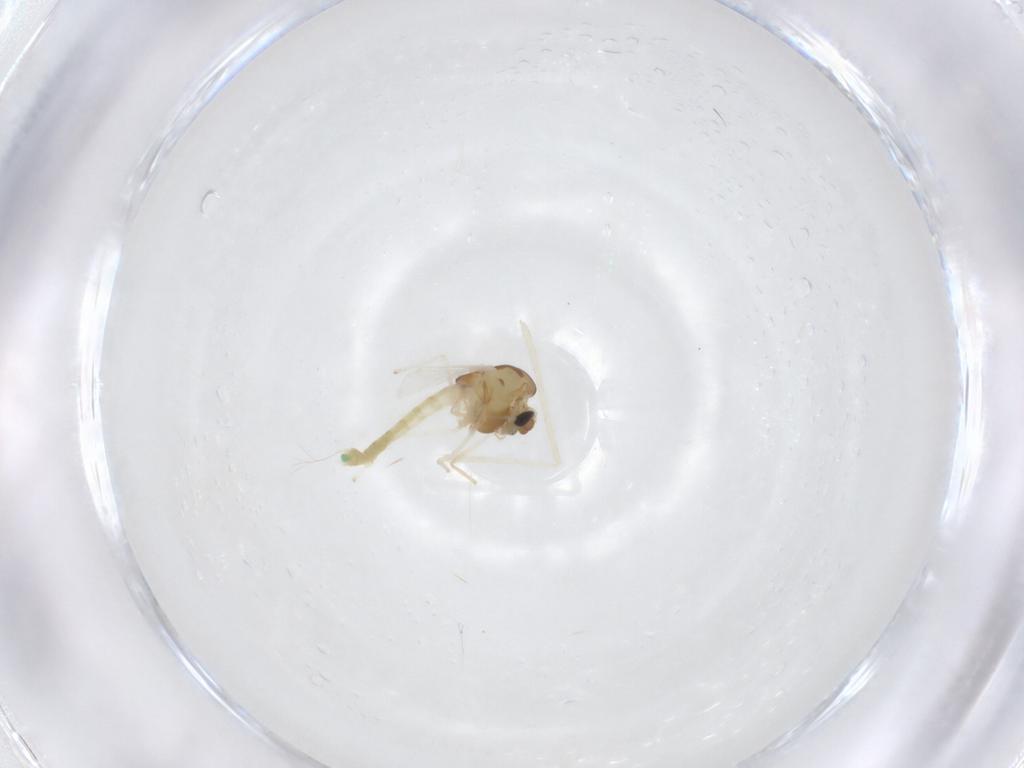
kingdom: Animalia
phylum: Arthropoda
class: Insecta
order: Diptera
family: Chironomidae
